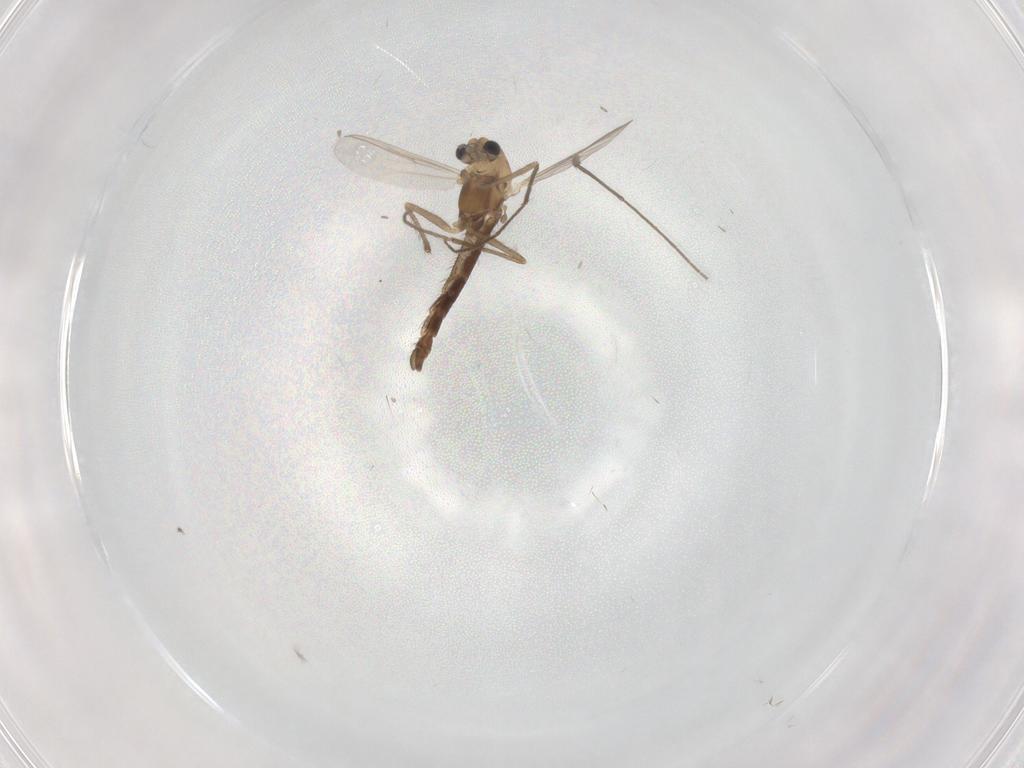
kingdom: Animalia
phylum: Arthropoda
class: Insecta
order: Diptera
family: Chironomidae
